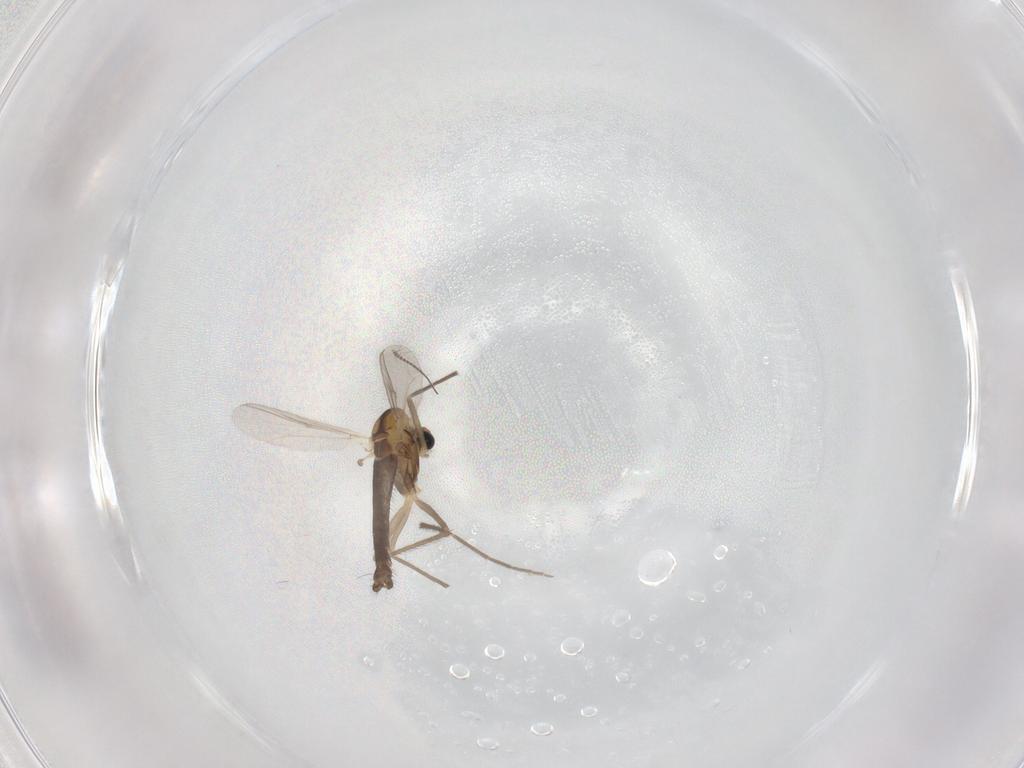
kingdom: Animalia
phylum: Arthropoda
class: Insecta
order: Diptera
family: Chironomidae
